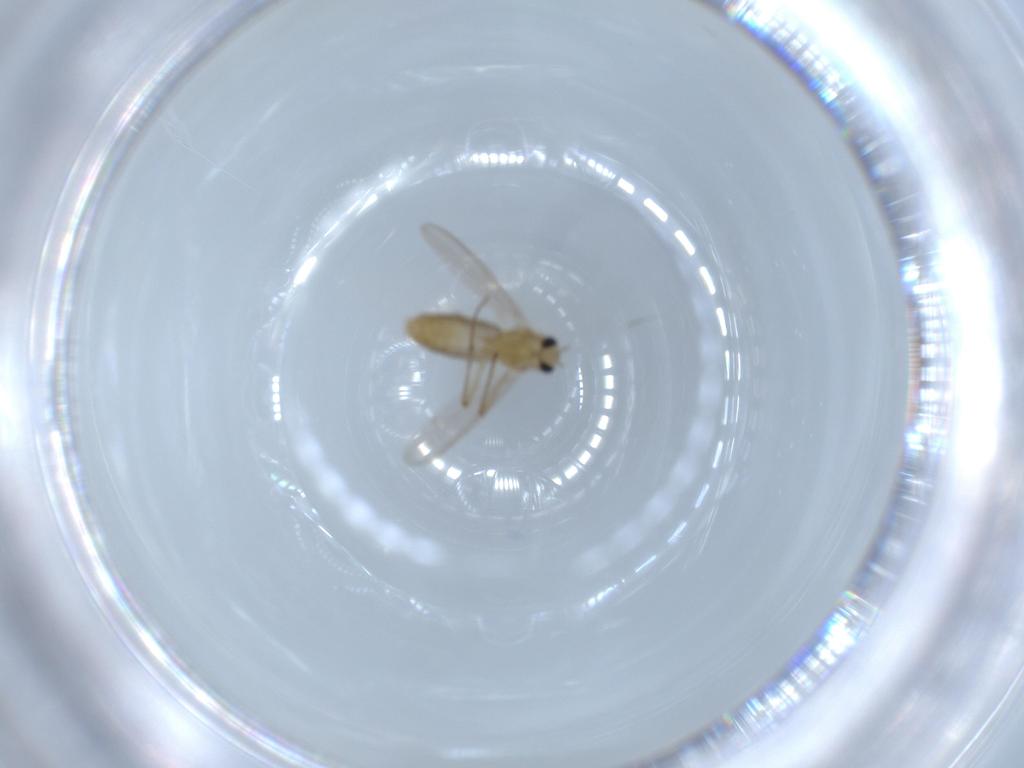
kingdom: Animalia
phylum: Arthropoda
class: Insecta
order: Diptera
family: Chironomidae
